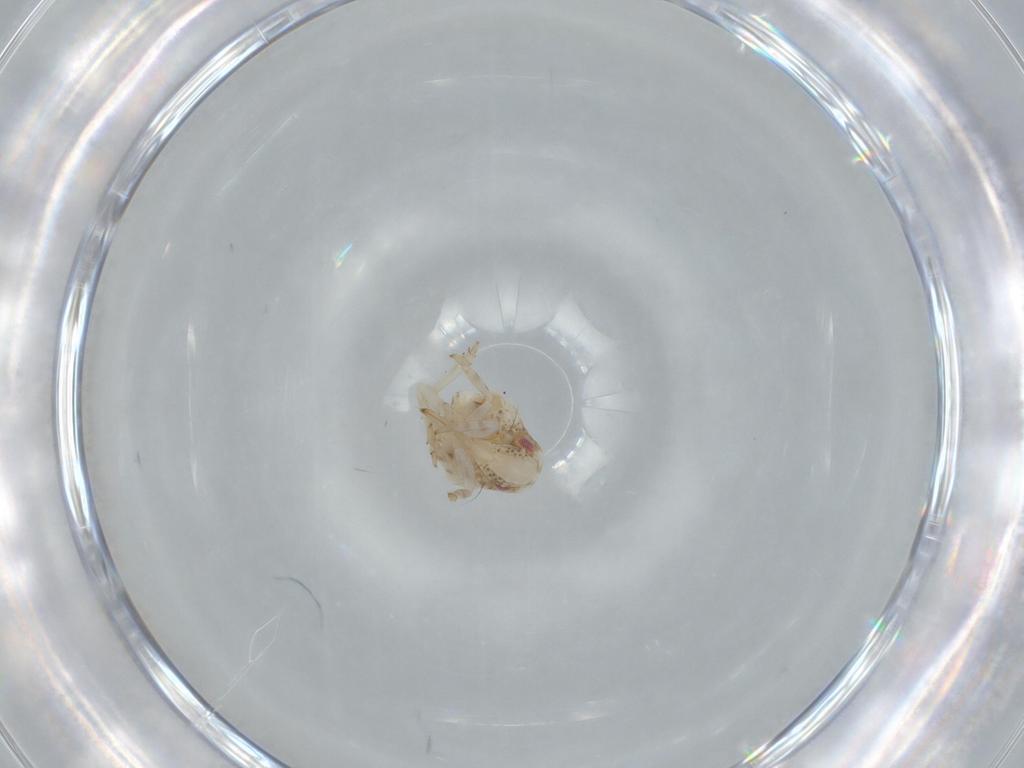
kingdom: Animalia
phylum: Arthropoda
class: Insecta
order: Hemiptera
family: Acanaloniidae
